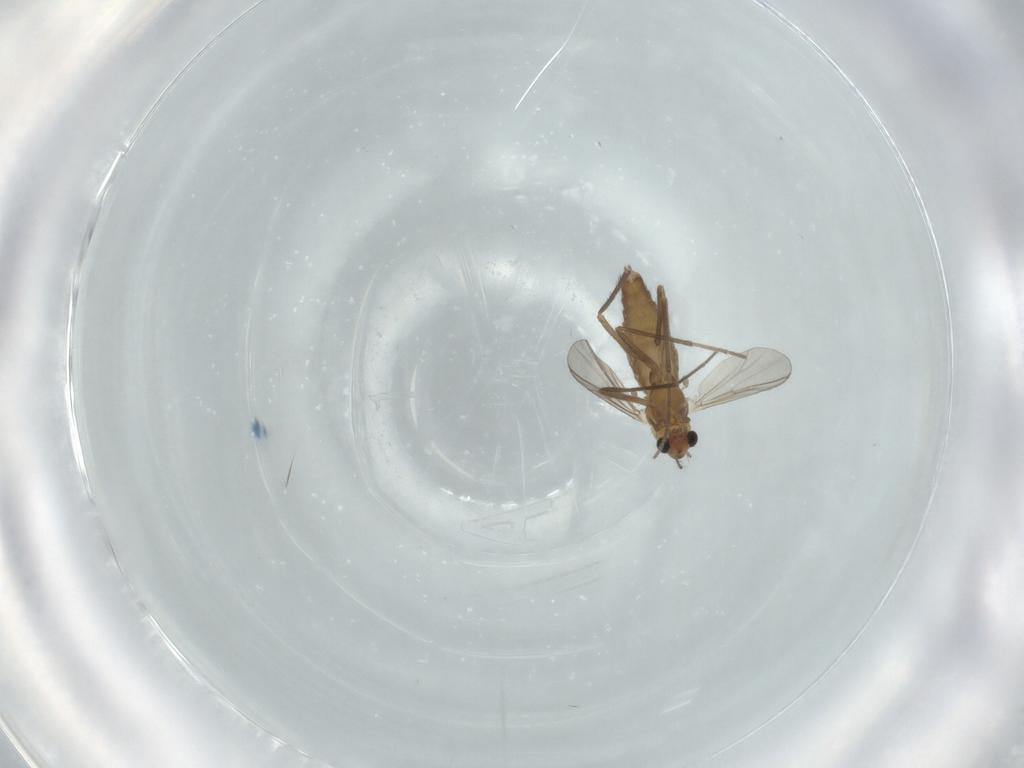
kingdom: Animalia
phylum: Arthropoda
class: Insecta
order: Diptera
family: Chironomidae
